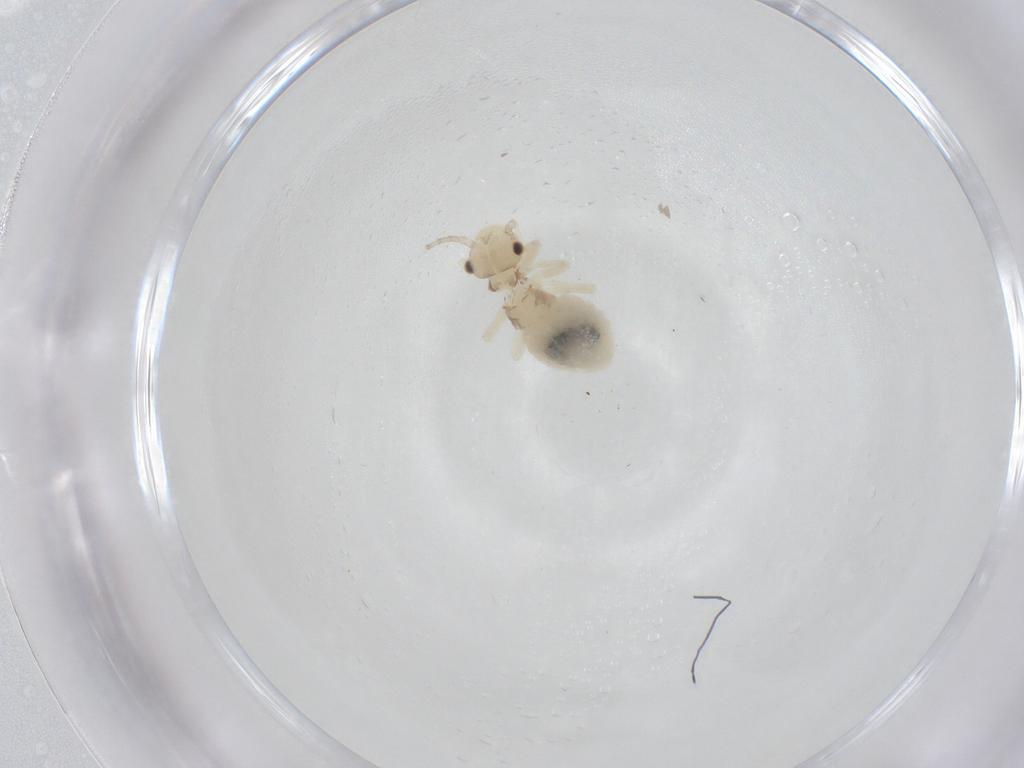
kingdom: Animalia
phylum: Arthropoda
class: Insecta
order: Psocodea
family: Amphipsocidae
